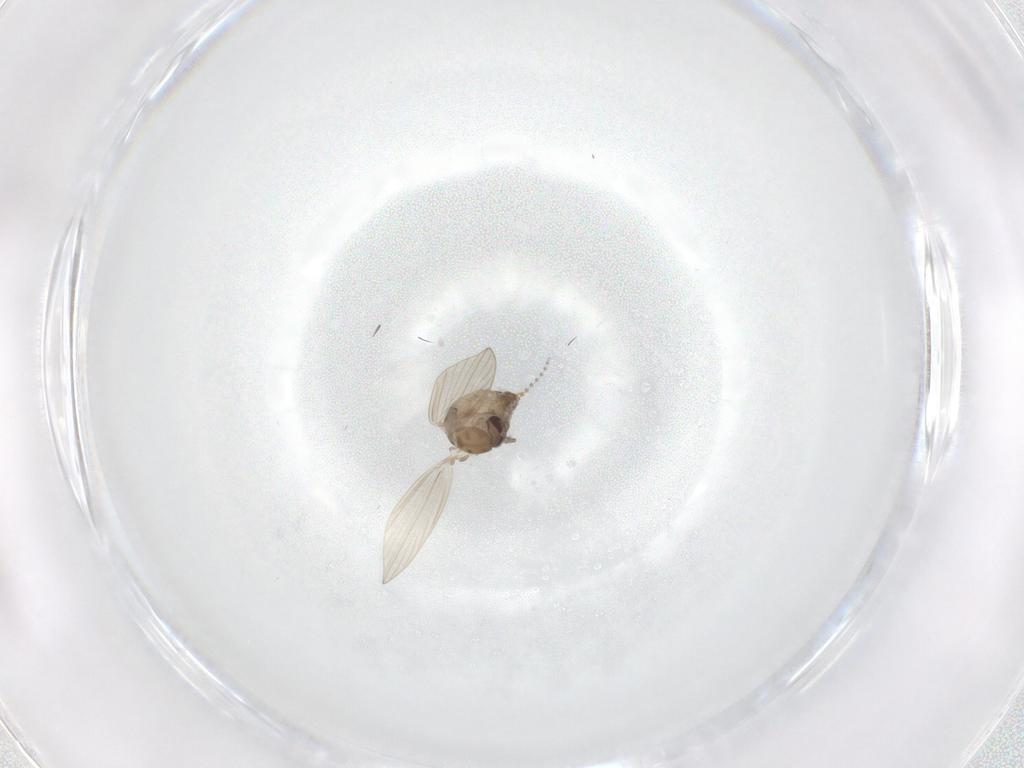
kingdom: Animalia
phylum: Arthropoda
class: Insecta
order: Diptera
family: Psychodidae
